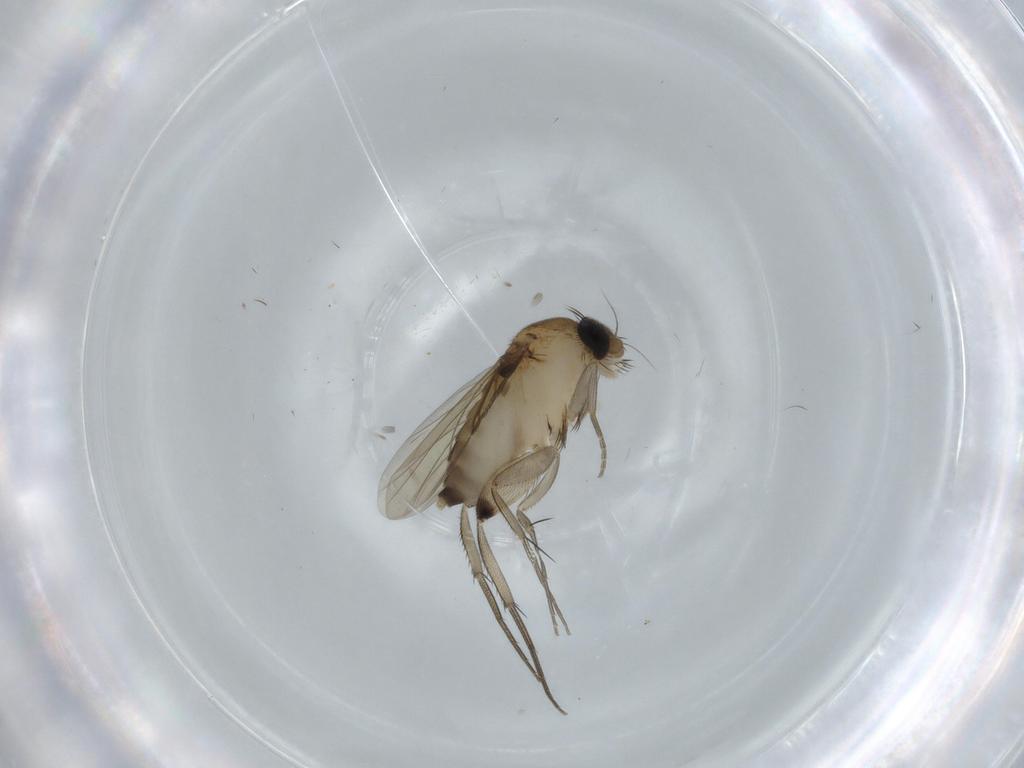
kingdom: Animalia
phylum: Arthropoda
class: Insecta
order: Diptera
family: Phoridae
